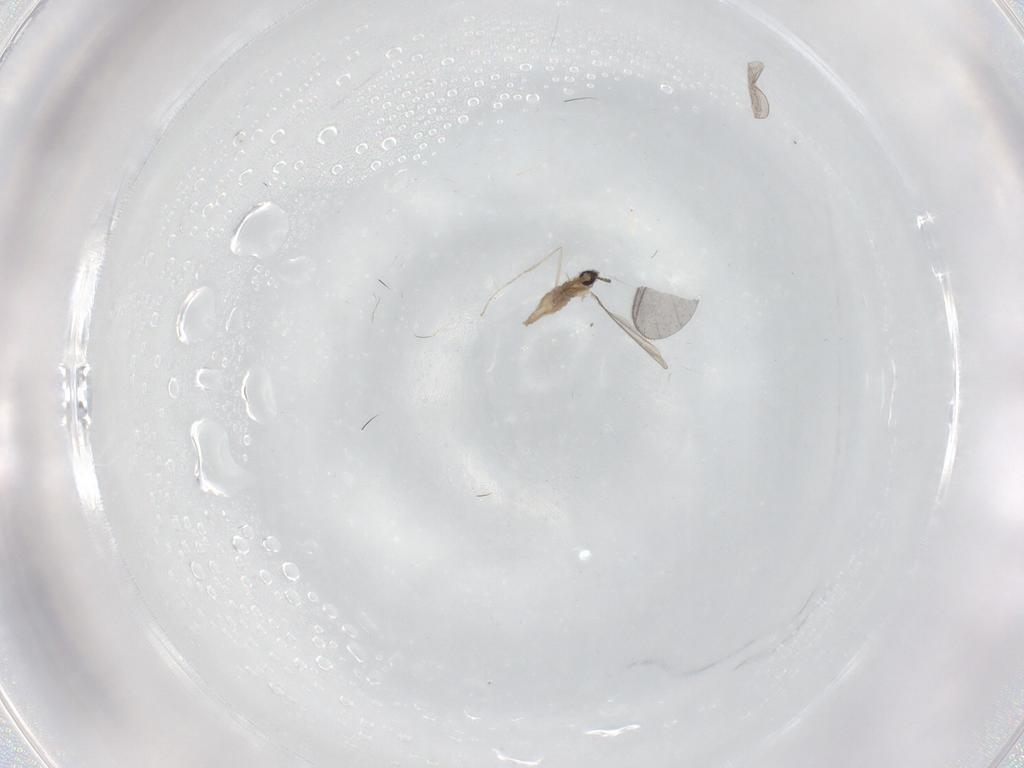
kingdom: Animalia
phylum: Arthropoda
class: Insecta
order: Diptera
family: Cecidomyiidae
